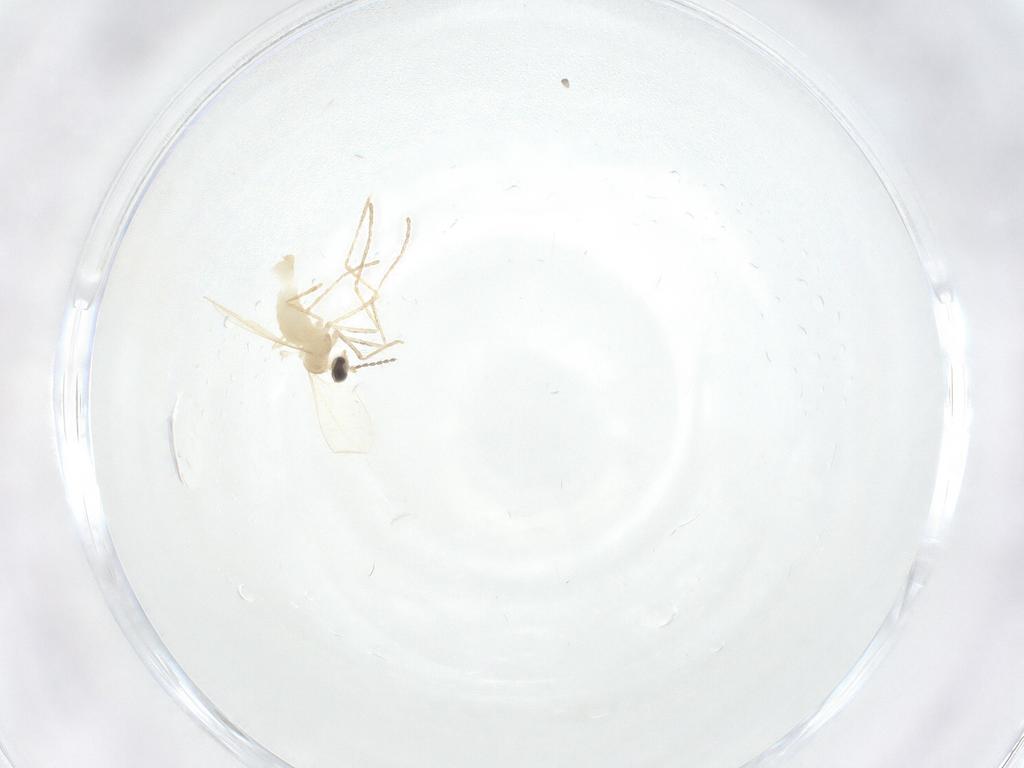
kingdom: Animalia
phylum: Arthropoda
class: Insecta
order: Diptera
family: Cecidomyiidae
